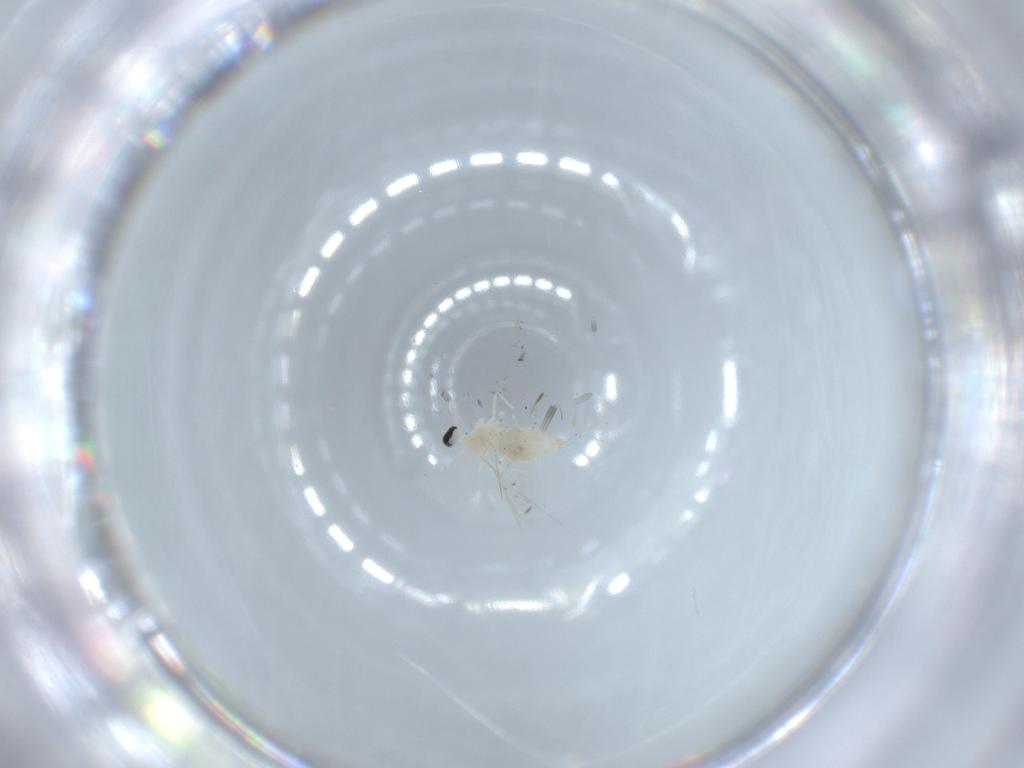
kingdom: Animalia
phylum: Arthropoda
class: Insecta
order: Diptera
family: Cecidomyiidae
